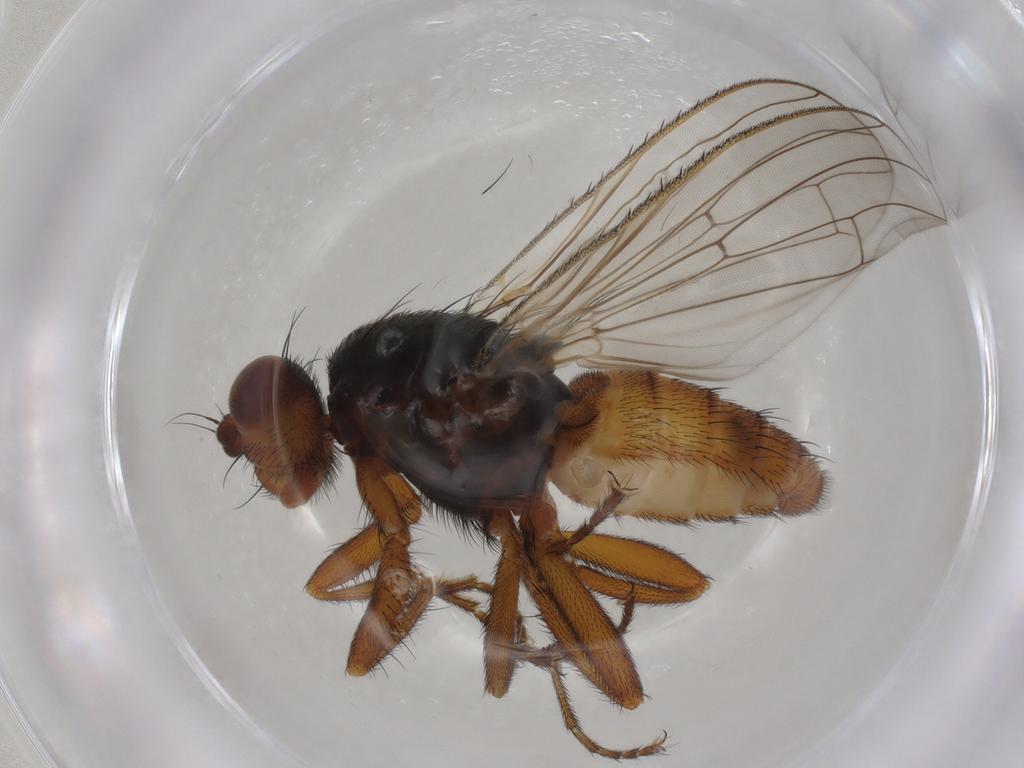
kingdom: Animalia
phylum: Arthropoda
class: Insecta
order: Diptera
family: Heleomyzidae
